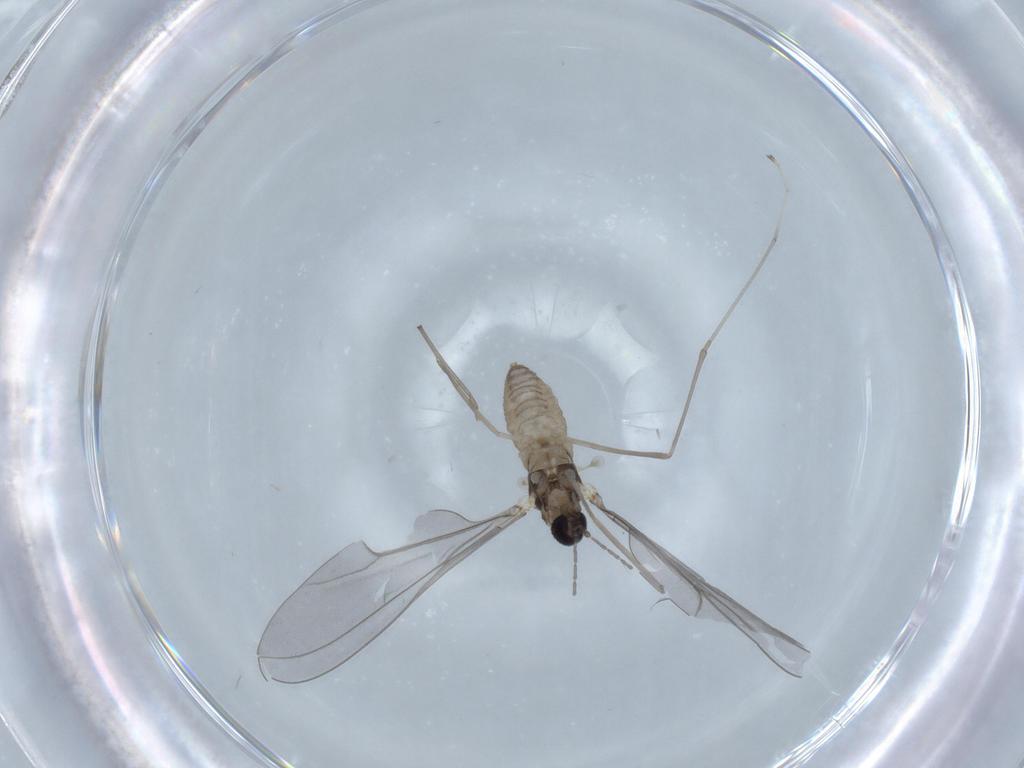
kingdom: Animalia
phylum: Arthropoda
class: Insecta
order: Diptera
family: Cecidomyiidae
